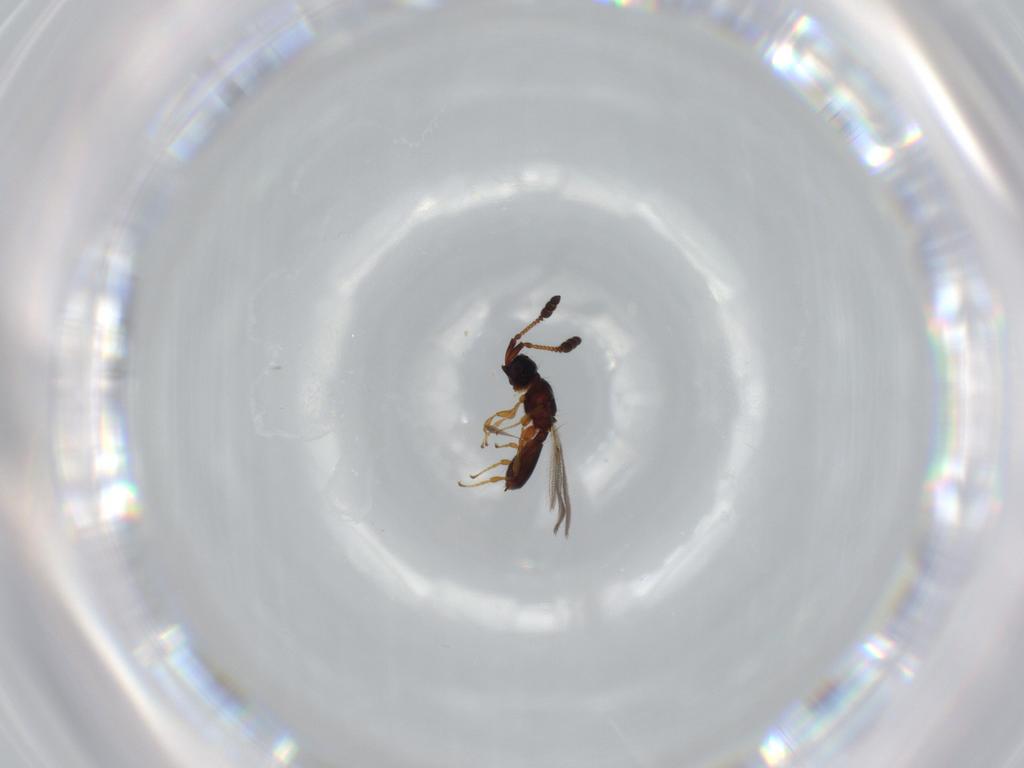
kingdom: Animalia
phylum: Arthropoda
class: Insecta
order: Hymenoptera
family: Diapriidae
